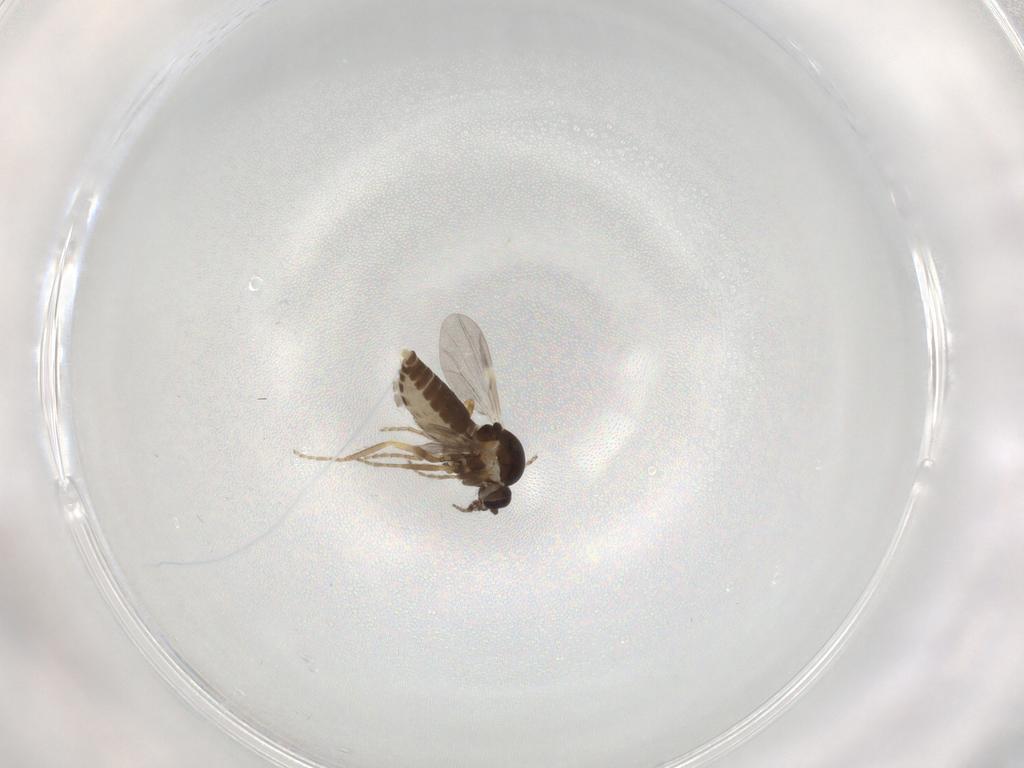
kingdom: Animalia
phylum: Arthropoda
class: Insecta
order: Diptera
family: Ceratopogonidae
